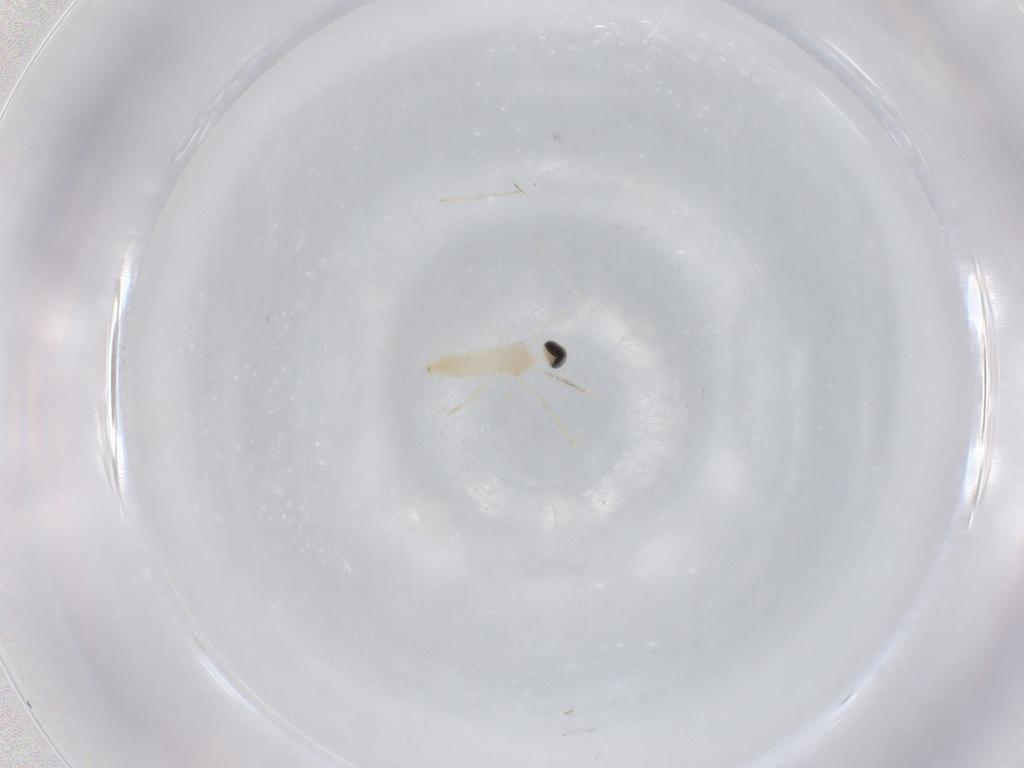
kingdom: Animalia
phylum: Arthropoda
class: Insecta
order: Diptera
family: Cecidomyiidae
